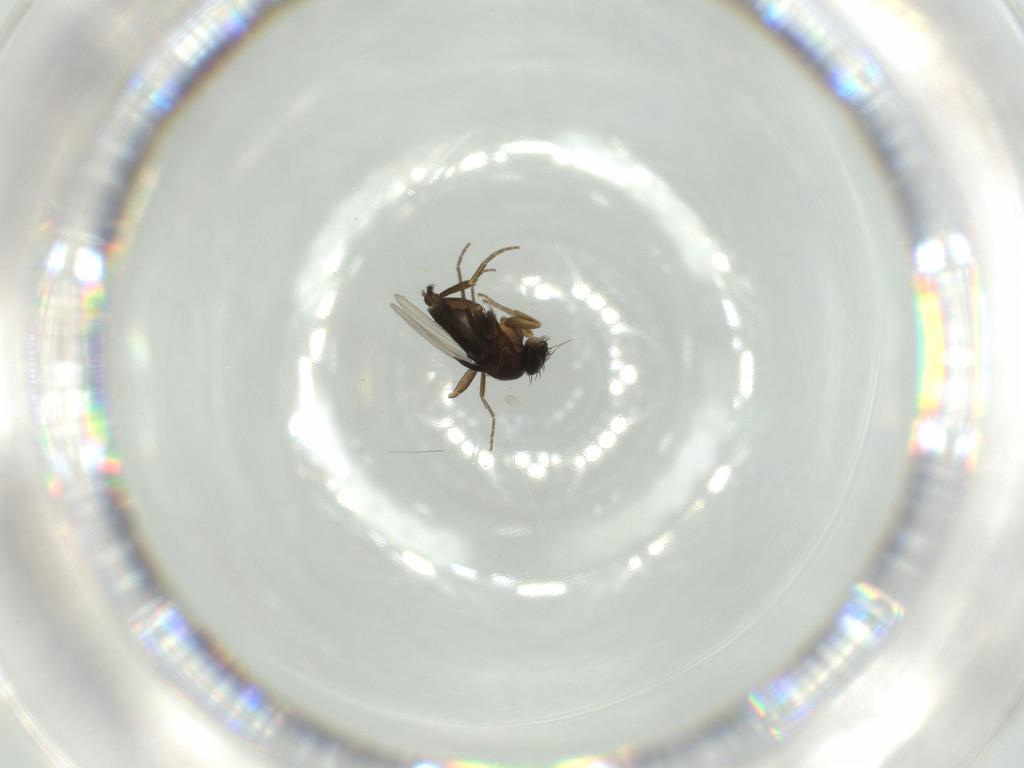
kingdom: Animalia
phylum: Arthropoda
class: Insecta
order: Diptera
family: Phoridae
